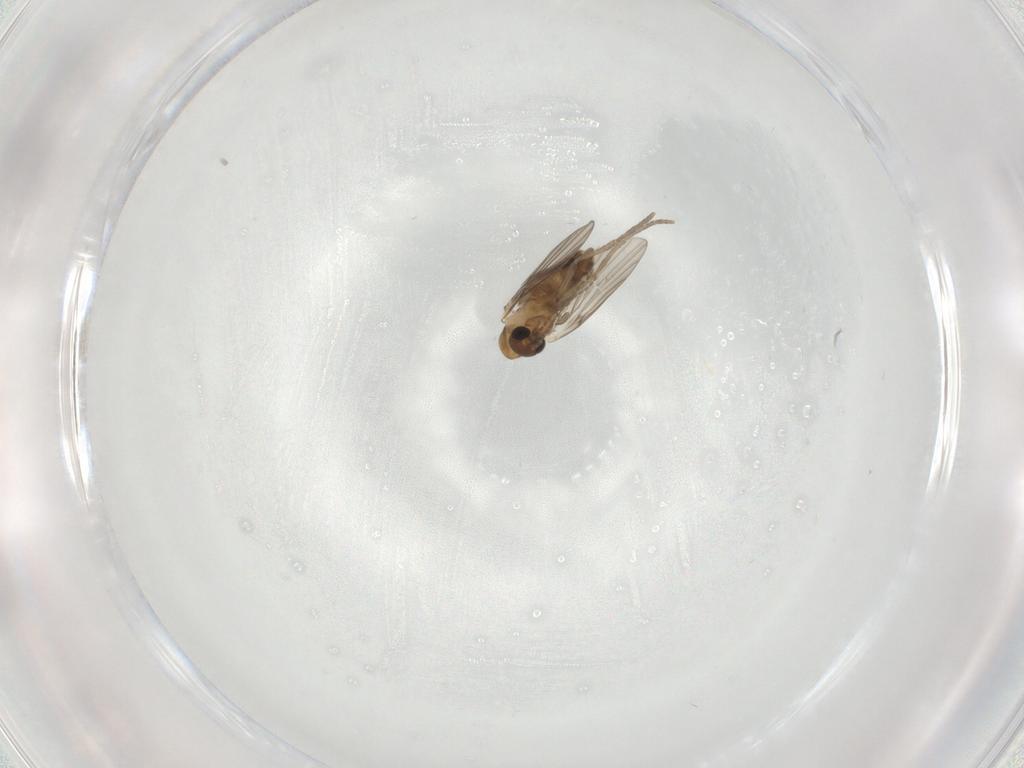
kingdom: Animalia
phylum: Arthropoda
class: Insecta
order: Diptera
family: Psychodidae
